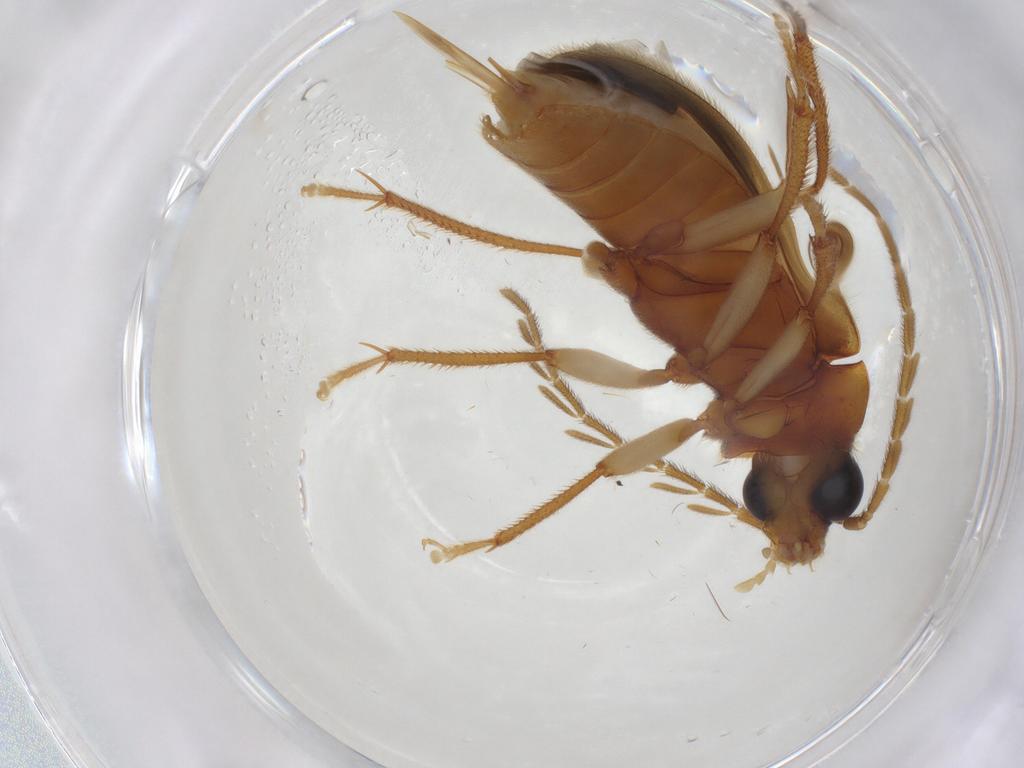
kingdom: Animalia
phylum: Arthropoda
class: Insecta
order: Coleoptera
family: Ptilodactylidae
